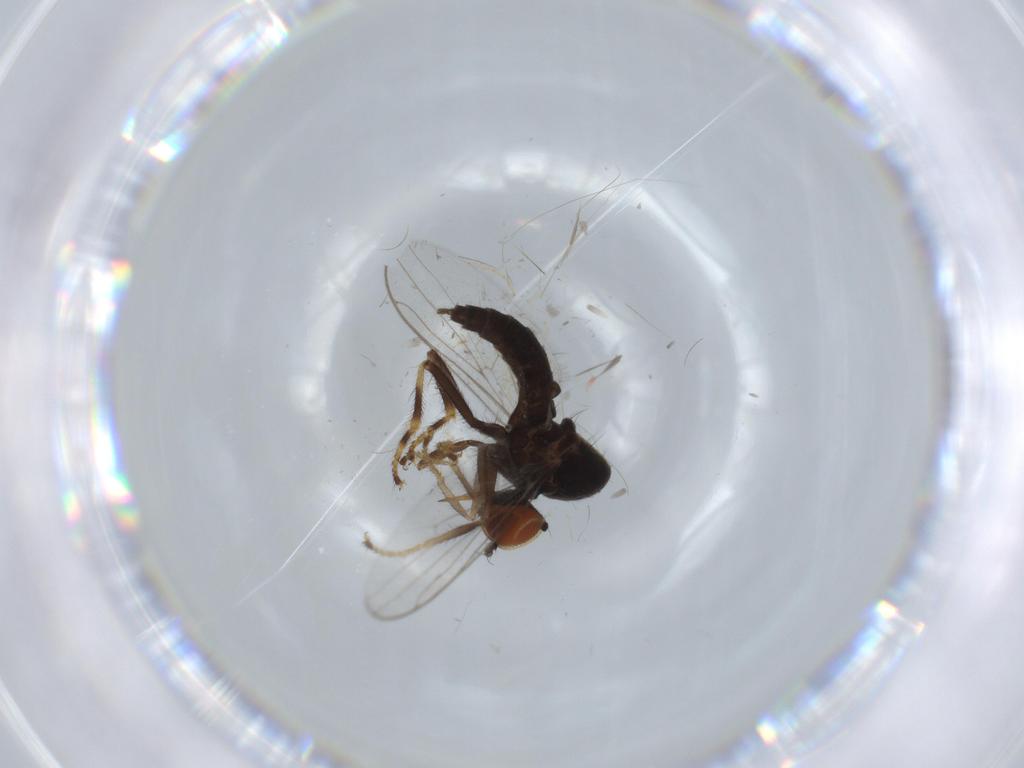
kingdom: Animalia
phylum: Arthropoda
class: Insecta
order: Diptera
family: Hybotidae
